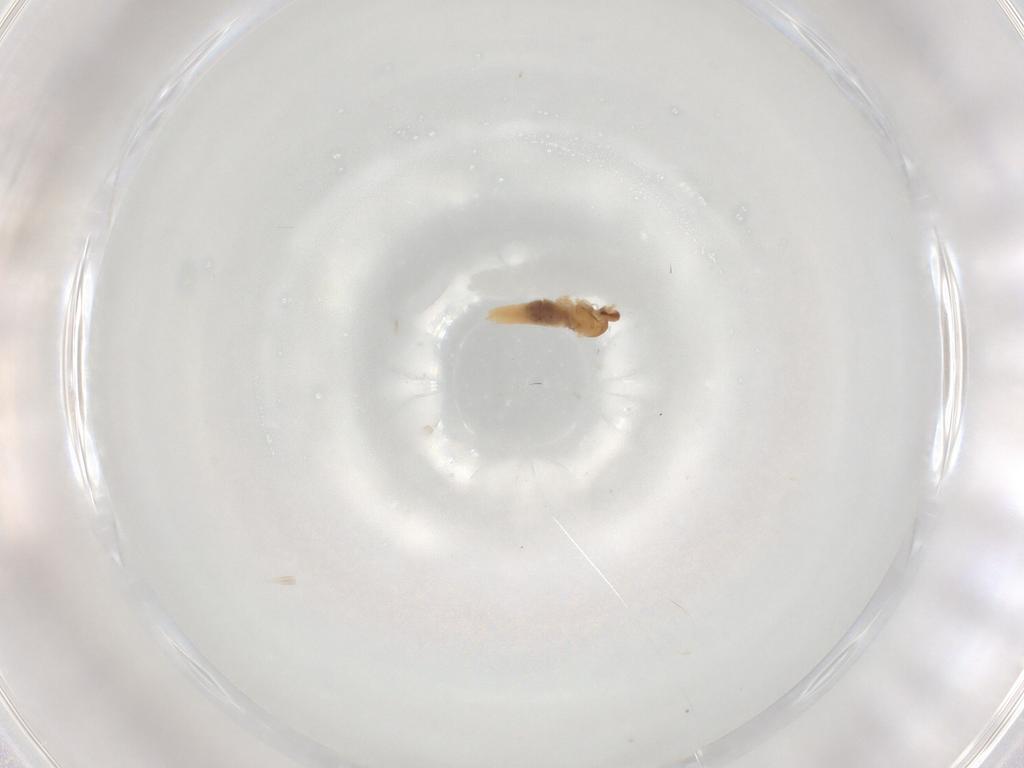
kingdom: Animalia
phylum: Arthropoda
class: Insecta
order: Diptera
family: Cecidomyiidae
